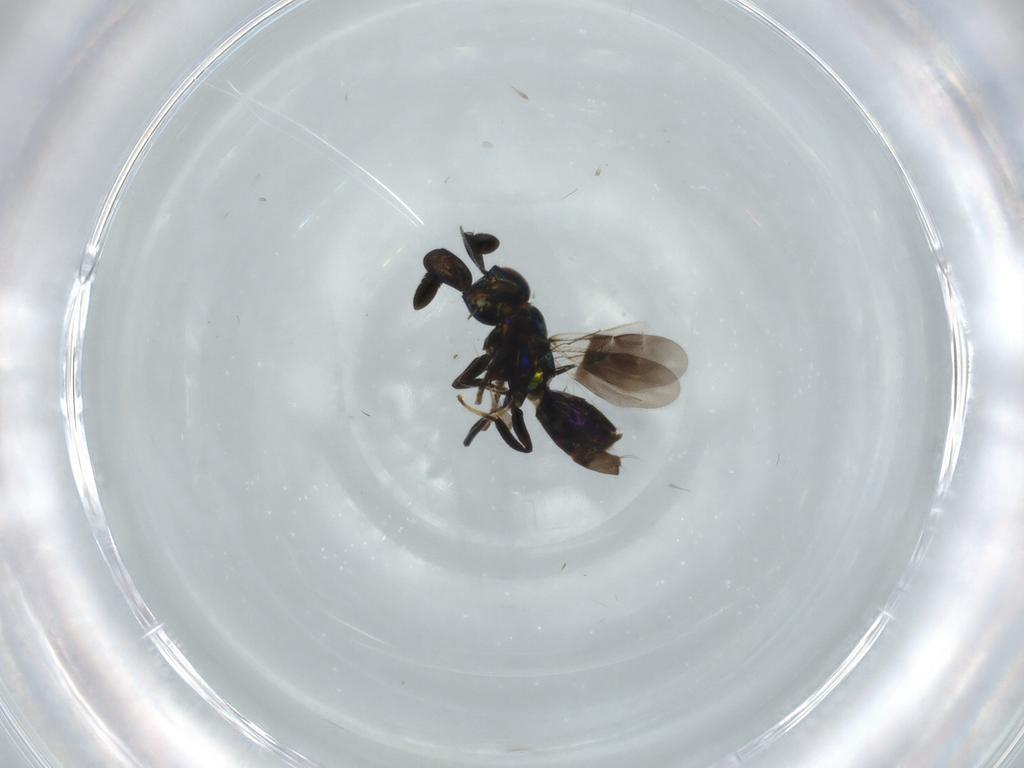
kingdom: Animalia
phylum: Arthropoda
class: Insecta
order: Hymenoptera
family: Encyrtidae
